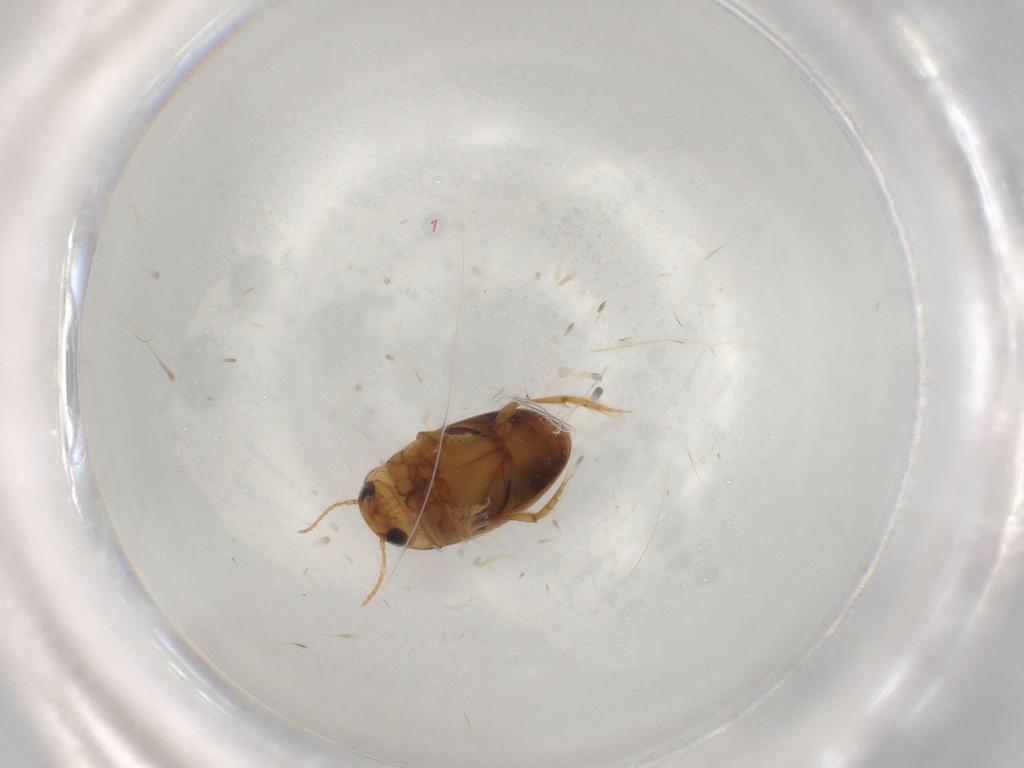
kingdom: Animalia
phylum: Arthropoda
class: Insecta
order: Coleoptera
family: Dytiscidae
